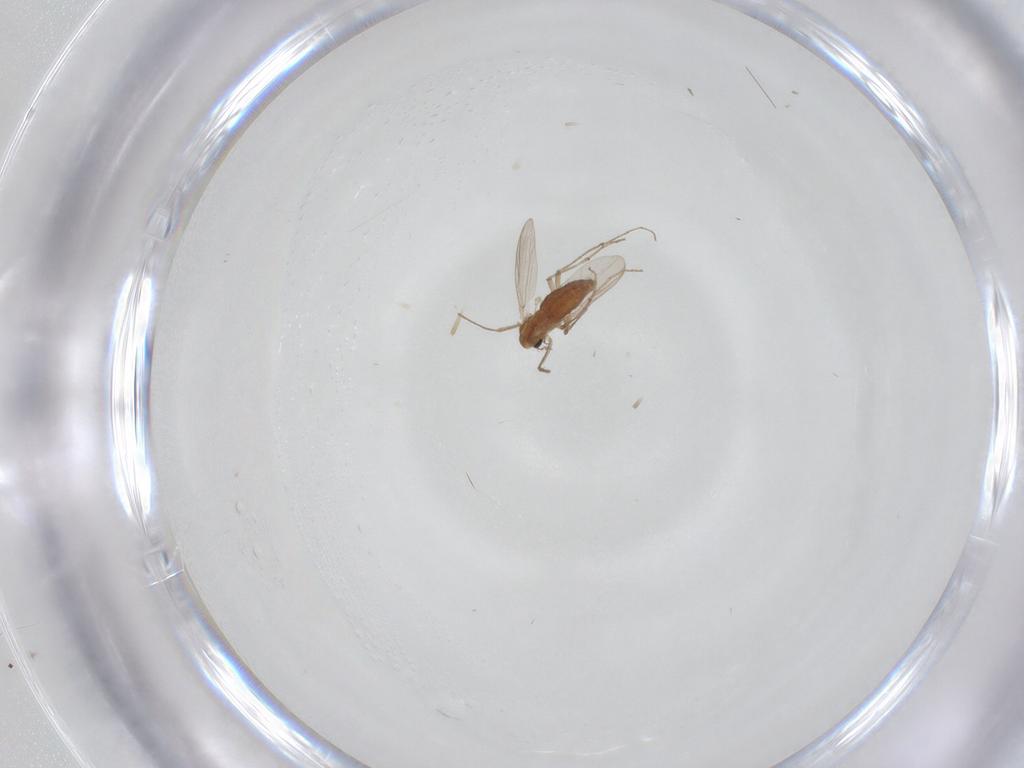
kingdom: Animalia
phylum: Arthropoda
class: Insecta
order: Diptera
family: Chironomidae
